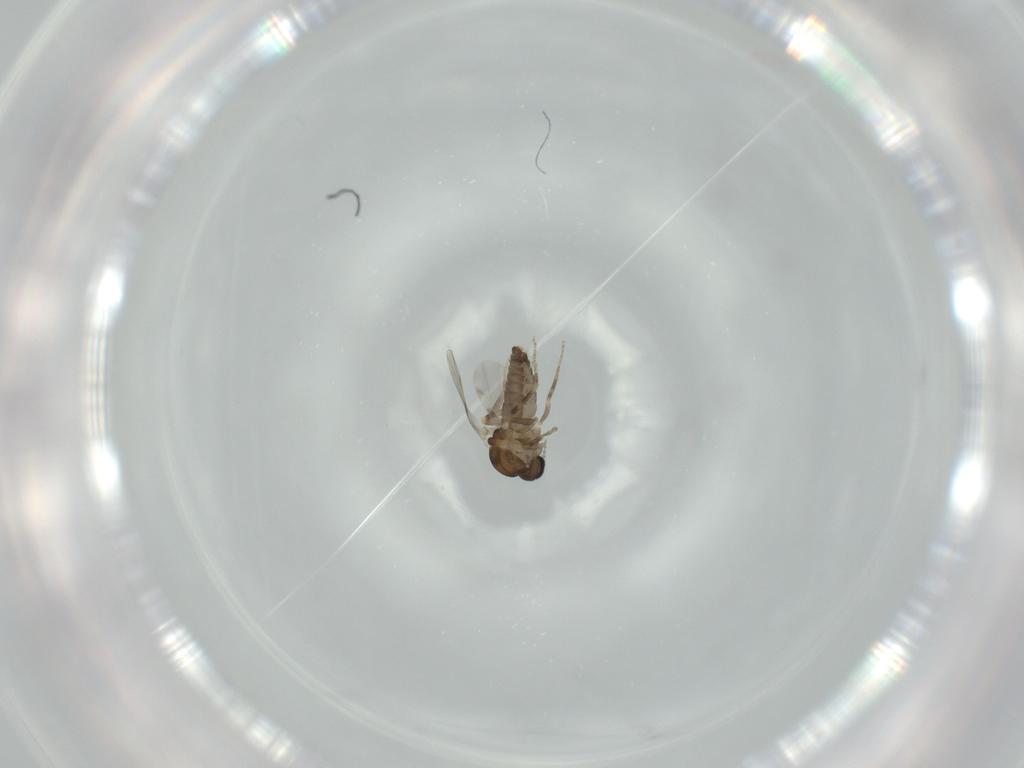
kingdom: Animalia
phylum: Arthropoda
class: Insecta
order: Diptera
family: Ceratopogonidae
